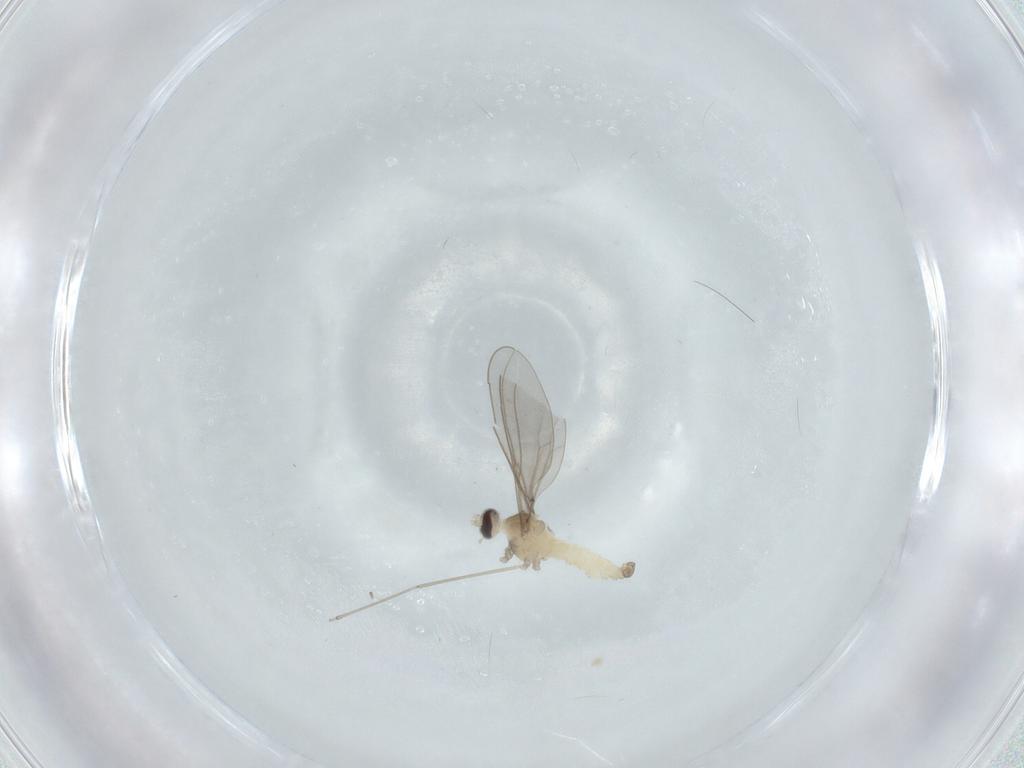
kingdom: Animalia
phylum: Arthropoda
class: Insecta
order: Diptera
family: Cecidomyiidae
